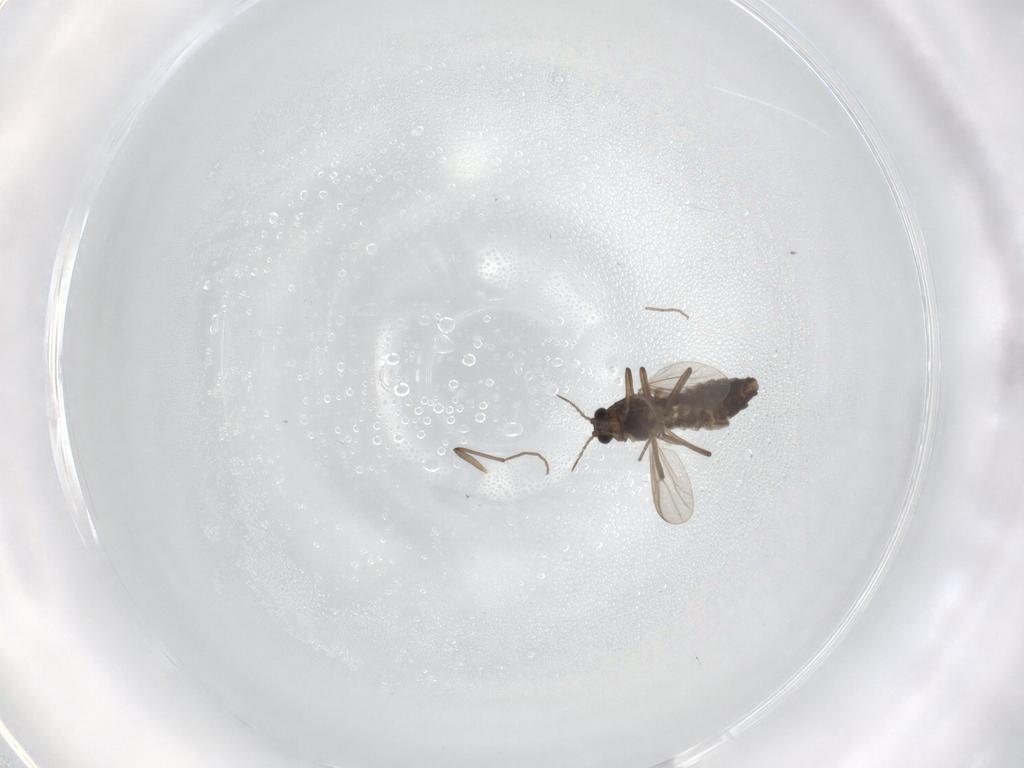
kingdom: Animalia
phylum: Arthropoda
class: Insecta
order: Diptera
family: Chironomidae
